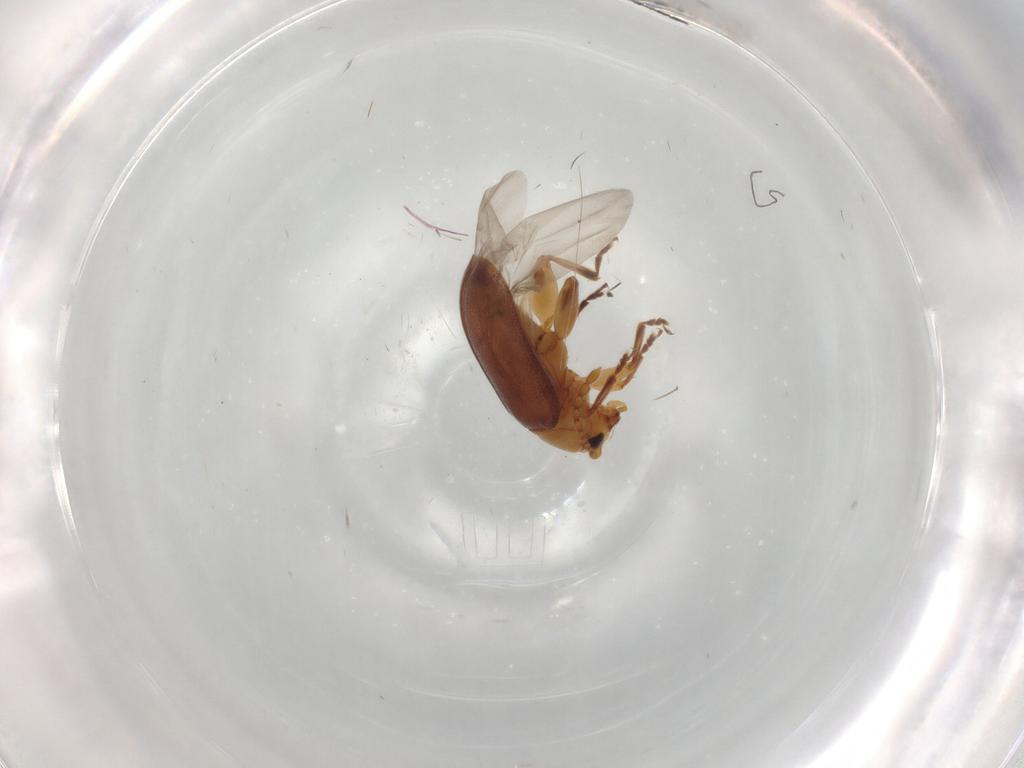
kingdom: Animalia
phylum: Arthropoda
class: Insecta
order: Coleoptera
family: Chrysomelidae
